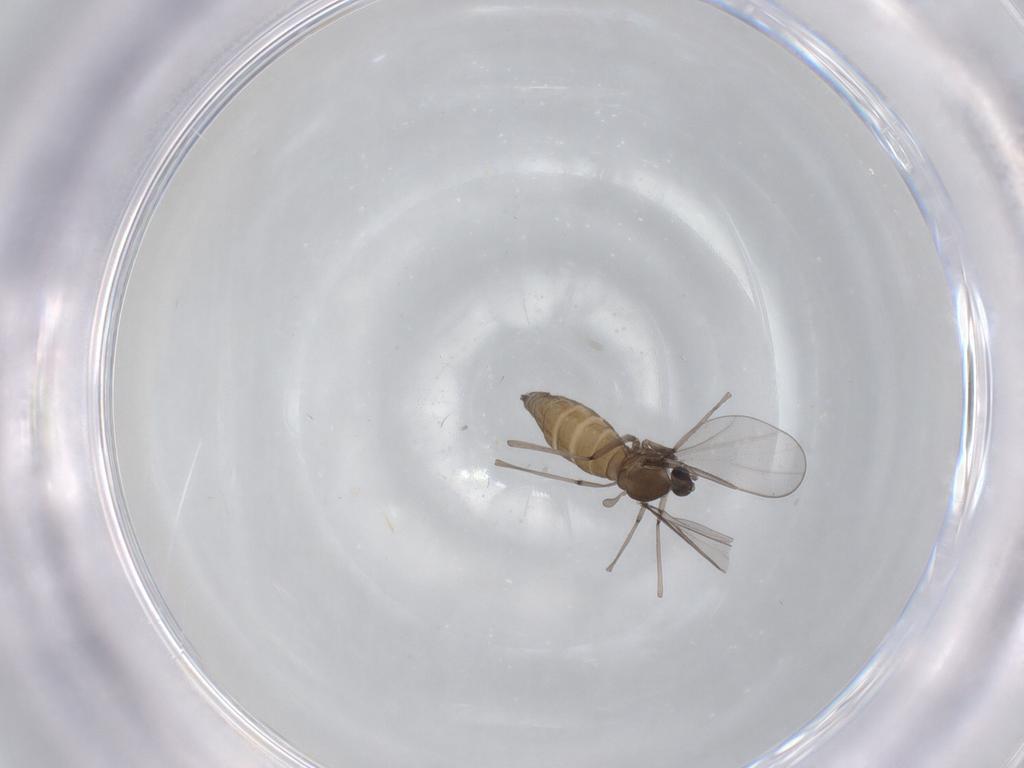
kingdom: Animalia
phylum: Arthropoda
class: Insecta
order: Diptera
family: Cecidomyiidae
